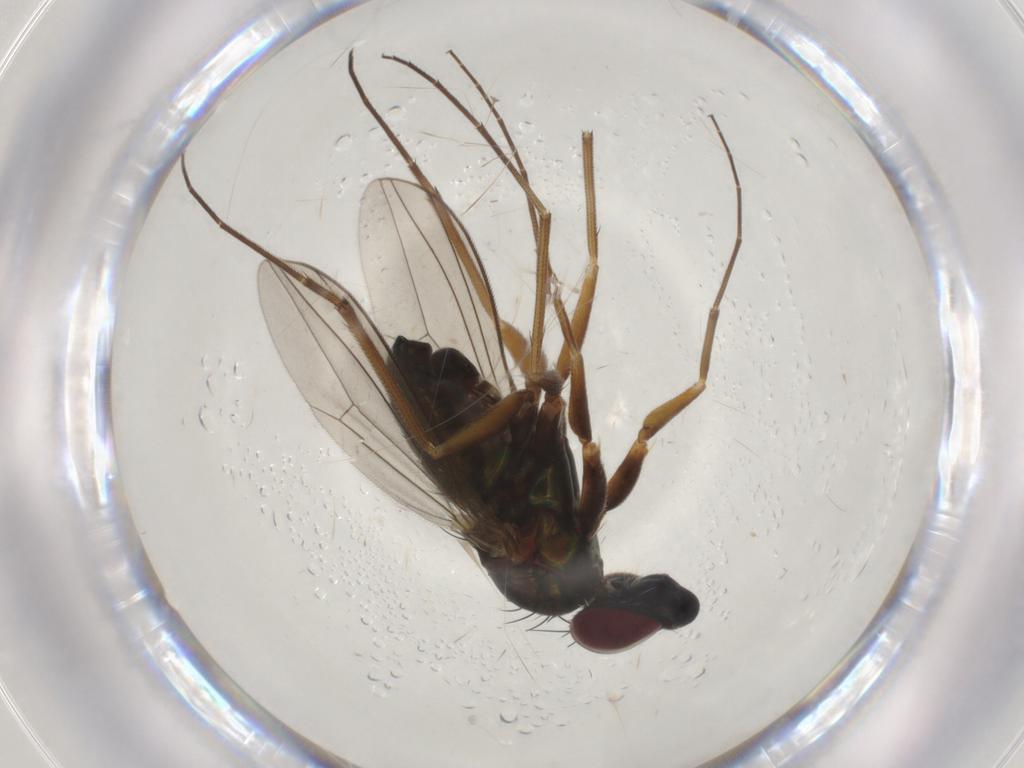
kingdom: Animalia
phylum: Arthropoda
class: Insecta
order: Diptera
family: Dolichopodidae
